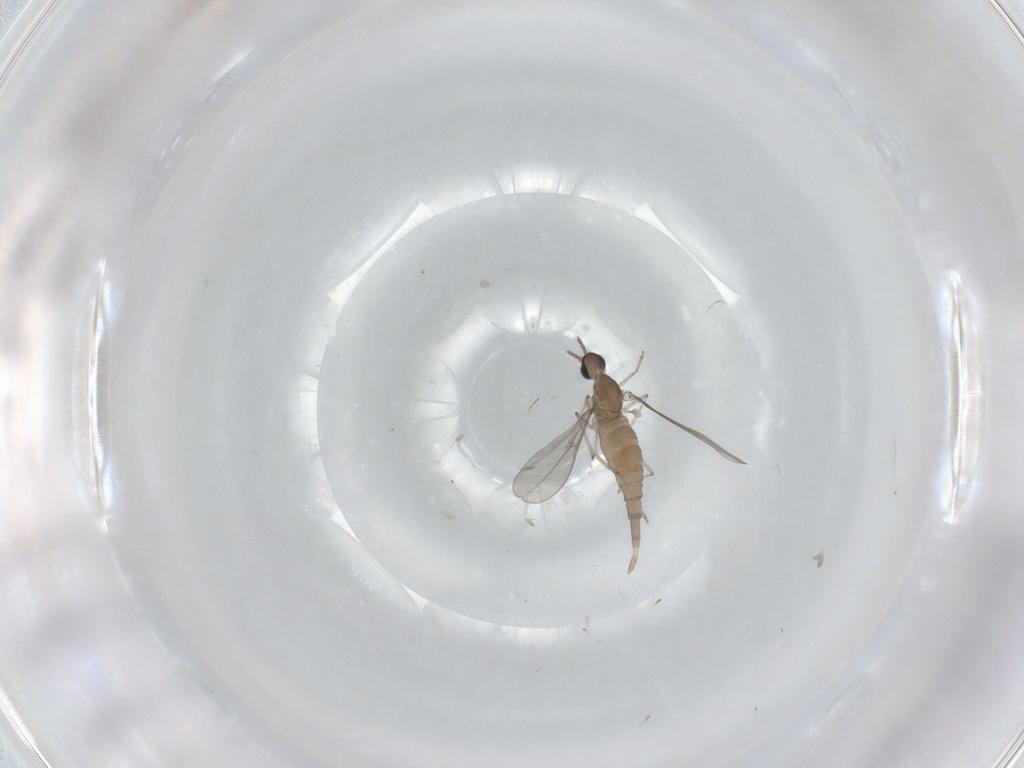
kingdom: Animalia
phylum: Arthropoda
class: Insecta
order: Diptera
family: Cecidomyiidae
